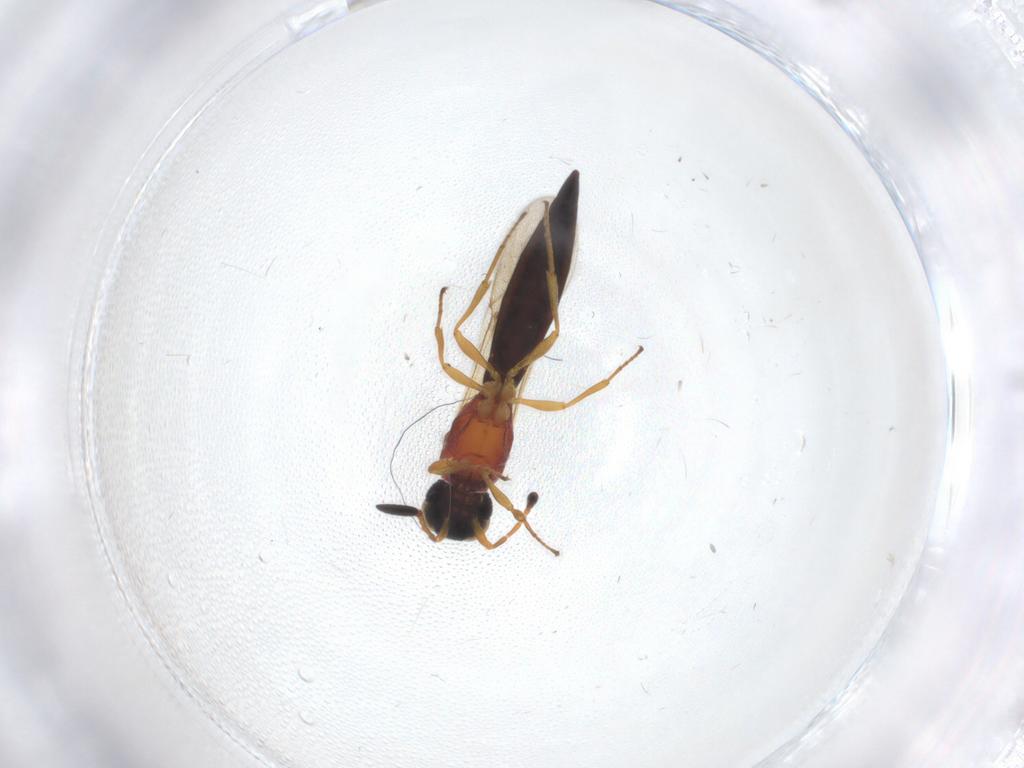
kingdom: Animalia
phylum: Arthropoda
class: Insecta
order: Hymenoptera
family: Scelionidae
